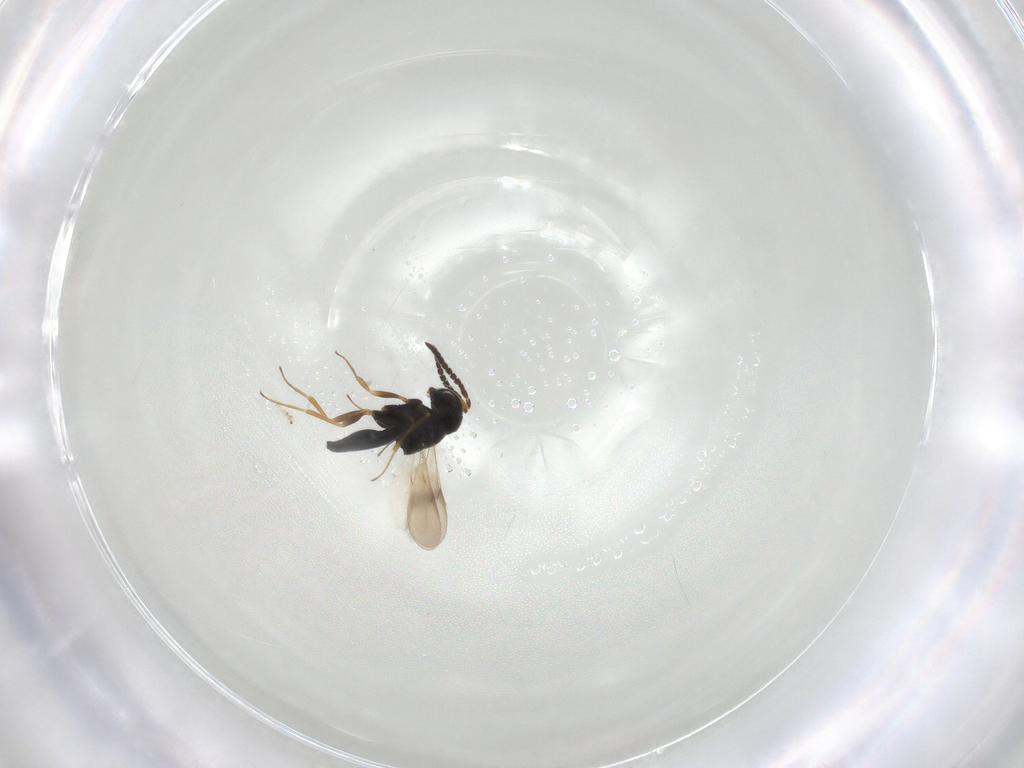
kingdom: Animalia
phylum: Arthropoda
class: Insecta
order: Hymenoptera
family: Scelionidae
